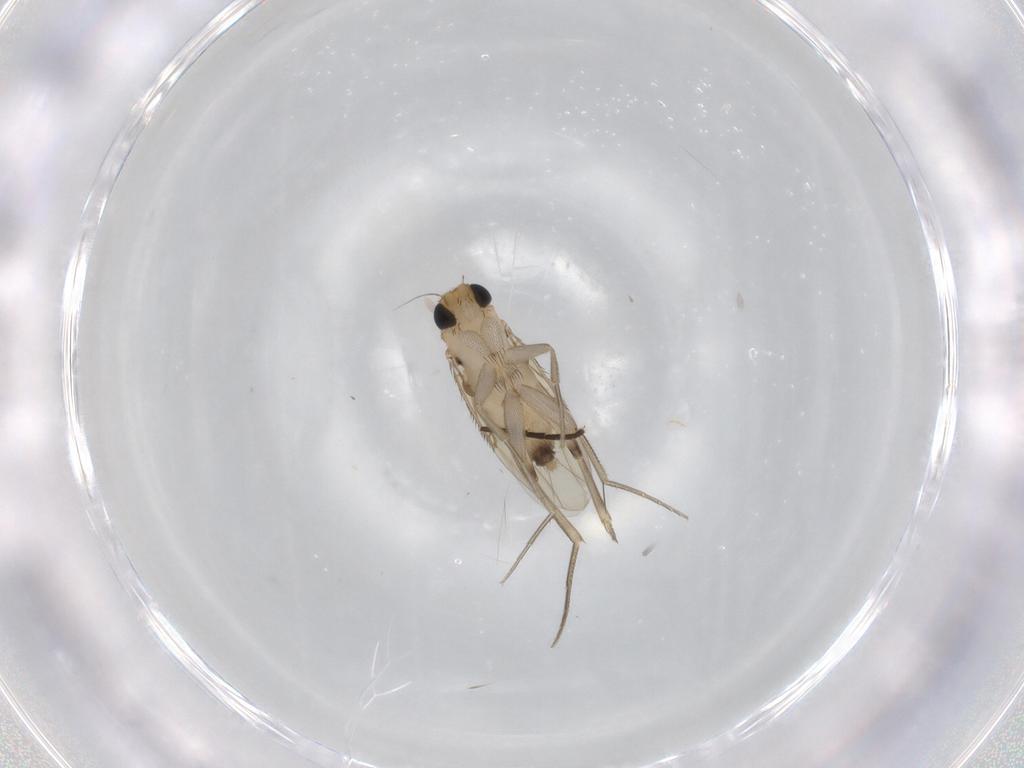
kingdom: Animalia
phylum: Arthropoda
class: Insecta
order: Diptera
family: Phoridae
